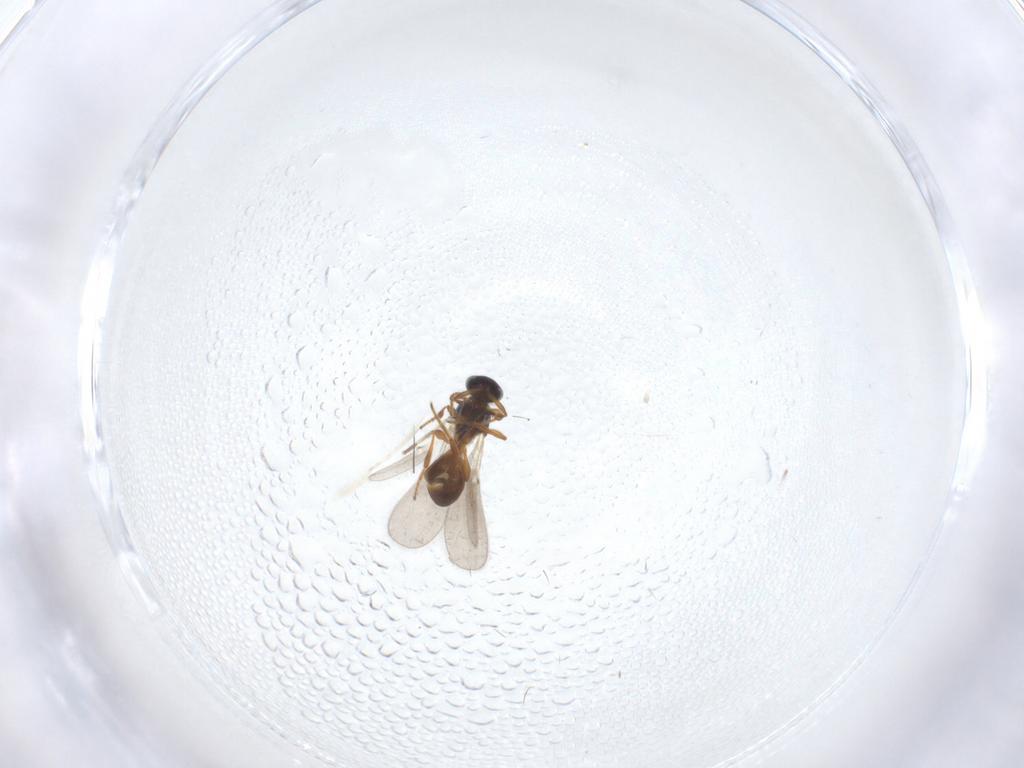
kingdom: Animalia
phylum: Arthropoda
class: Insecta
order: Hymenoptera
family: Platygastridae
